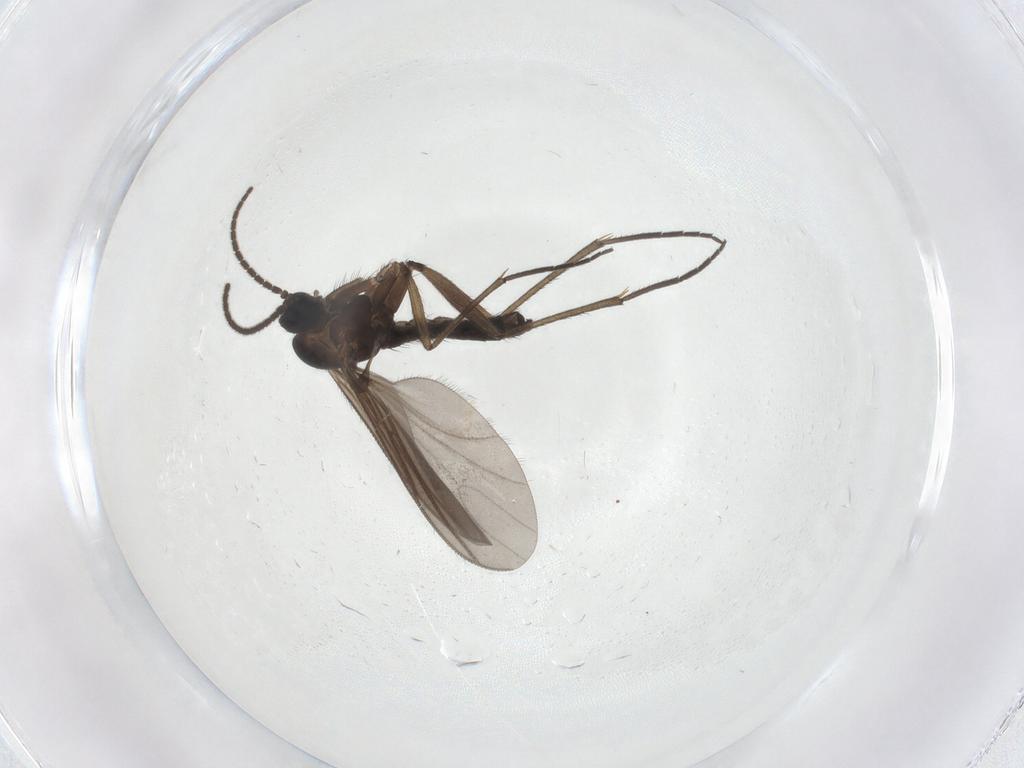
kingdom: Animalia
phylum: Arthropoda
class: Insecta
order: Diptera
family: Sciaridae
